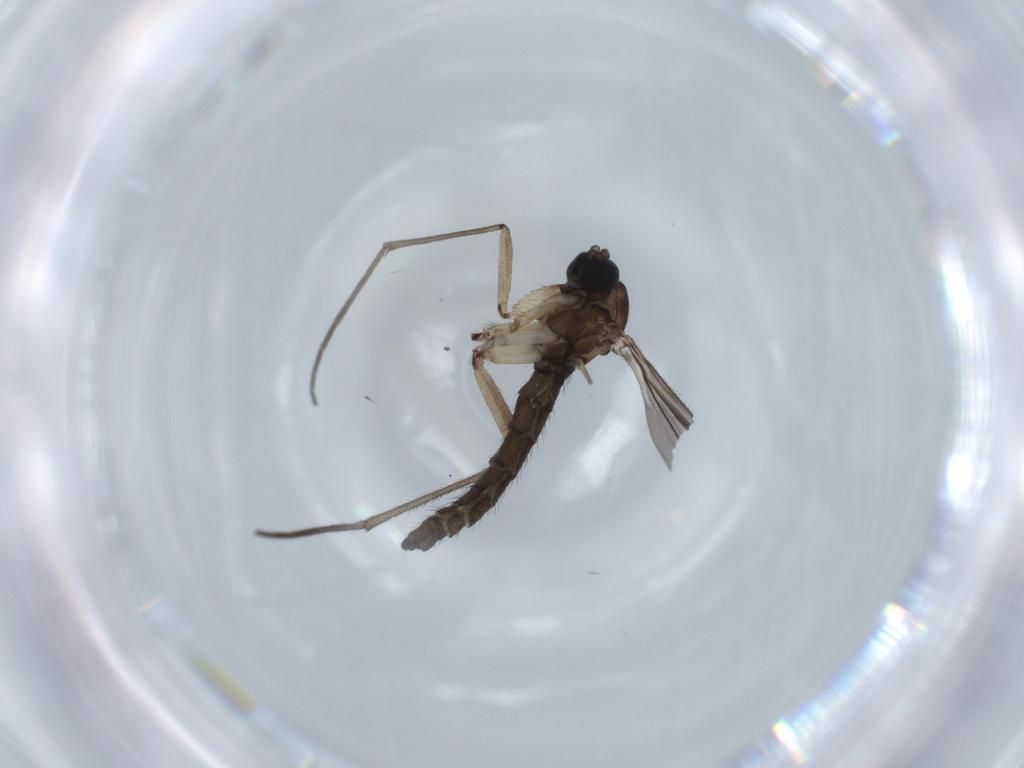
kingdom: Animalia
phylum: Arthropoda
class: Insecta
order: Diptera
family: Sciaridae
